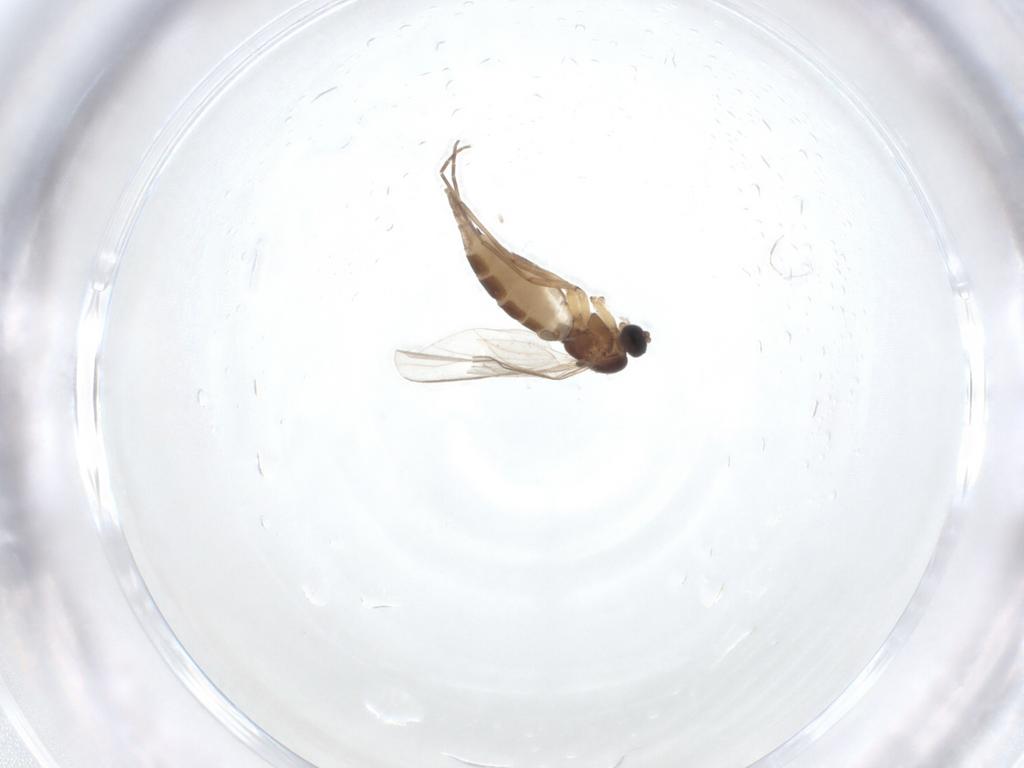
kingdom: Animalia
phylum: Arthropoda
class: Insecta
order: Diptera
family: Sciaridae
